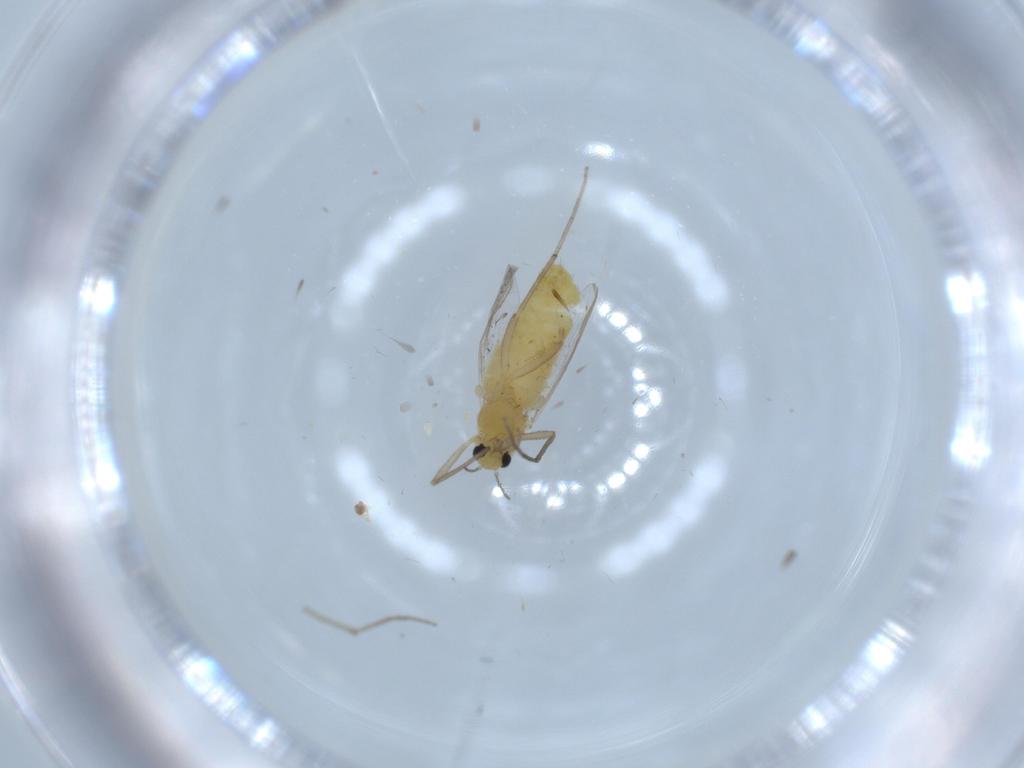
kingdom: Animalia
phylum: Arthropoda
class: Insecta
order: Diptera
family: Chironomidae
